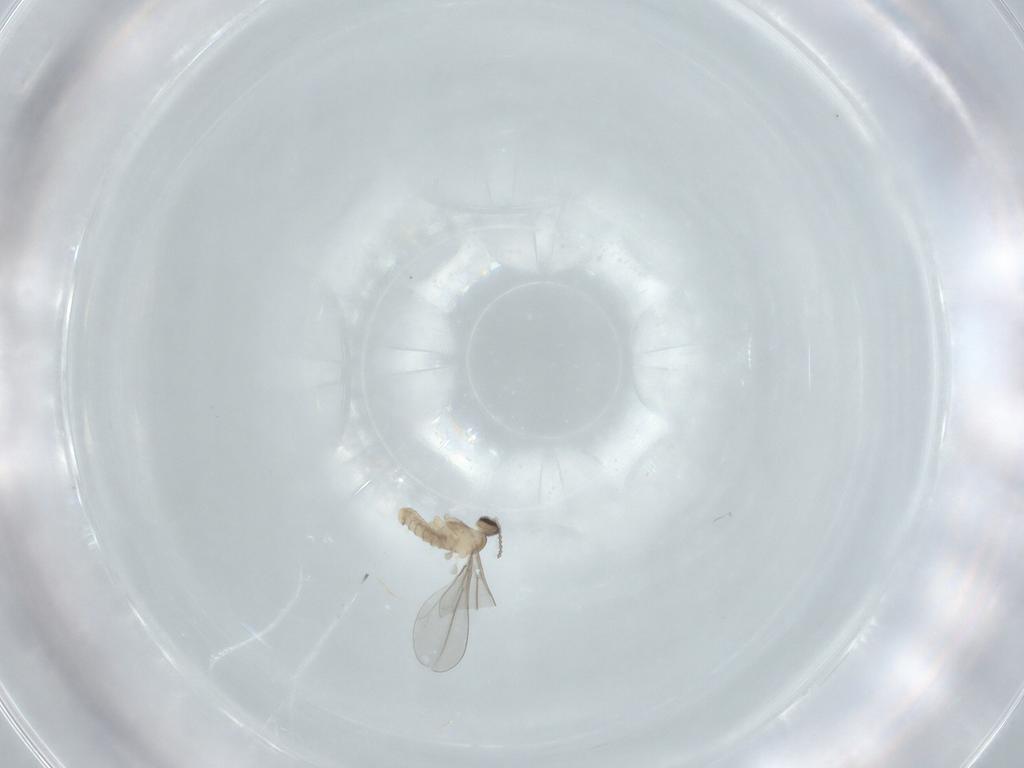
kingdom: Animalia
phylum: Arthropoda
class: Insecta
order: Diptera
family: Cecidomyiidae
